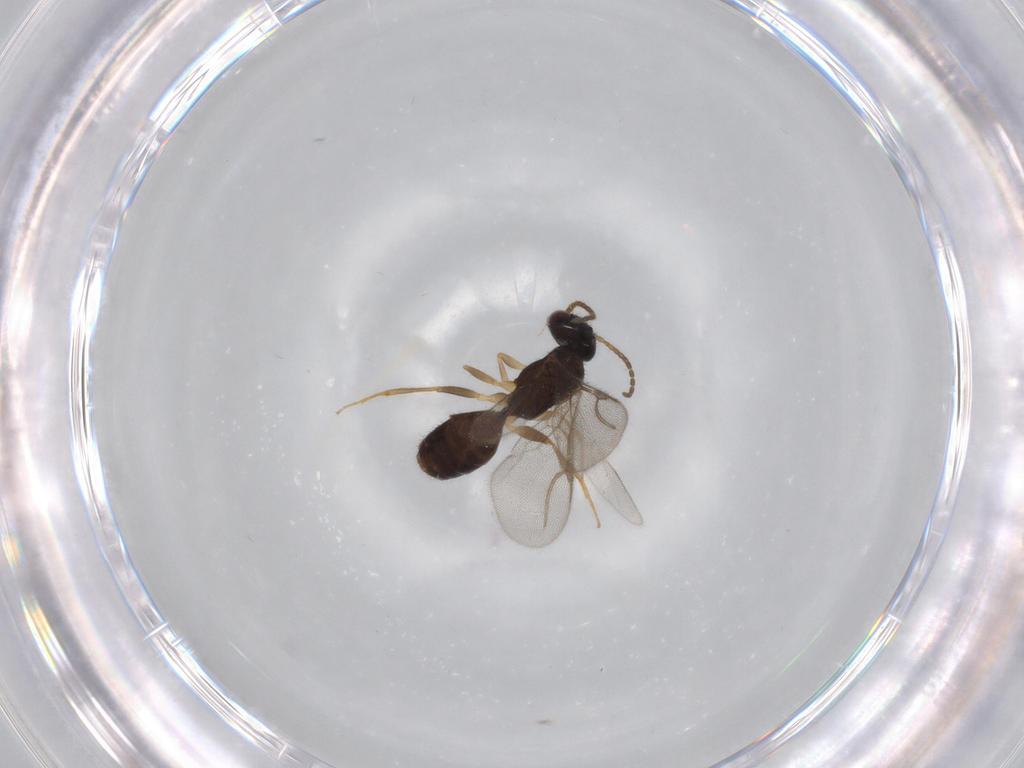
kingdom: Animalia
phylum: Arthropoda
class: Insecta
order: Hymenoptera
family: Bethylidae
